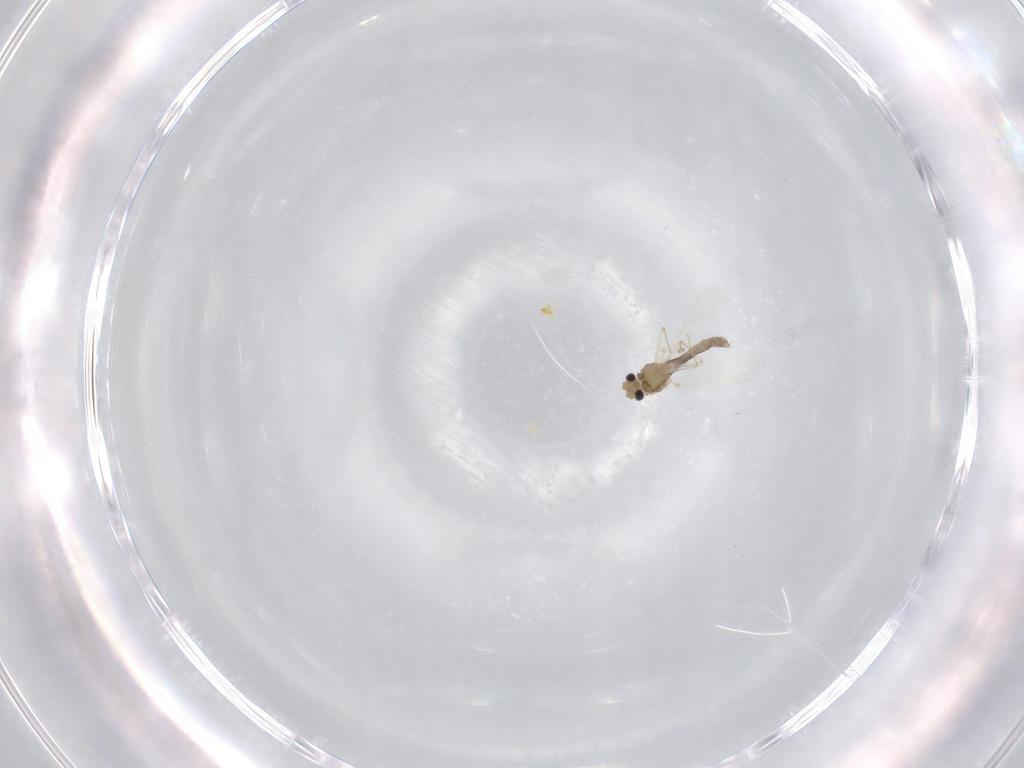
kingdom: Animalia
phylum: Arthropoda
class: Insecta
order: Diptera
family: Chironomidae
